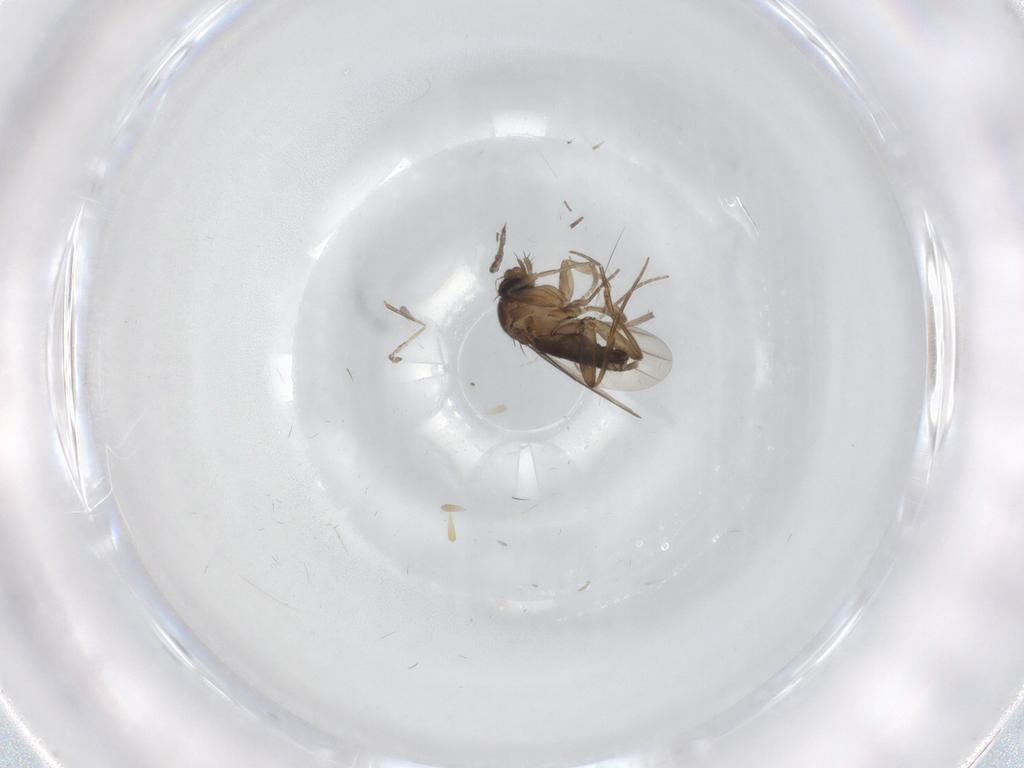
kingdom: Animalia
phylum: Arthropoda
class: Insecta
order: Diptera
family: Phoridae
